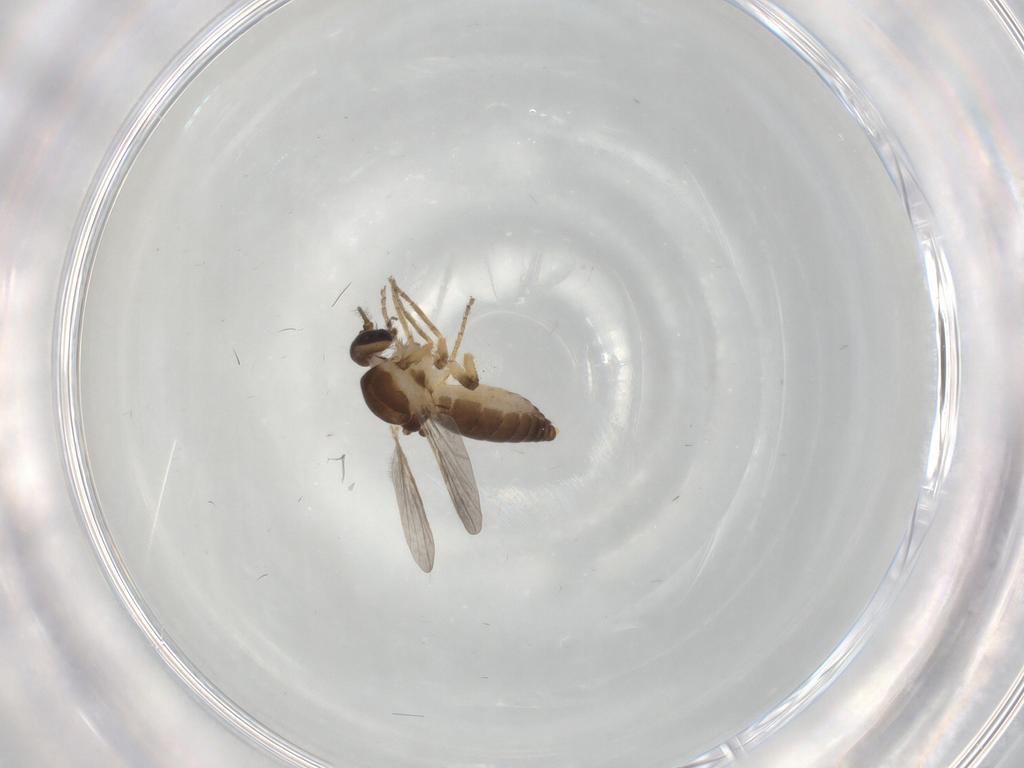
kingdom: Animalia
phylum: Arthropoda
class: Insecta
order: Diptera
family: Ceratopogonidae
